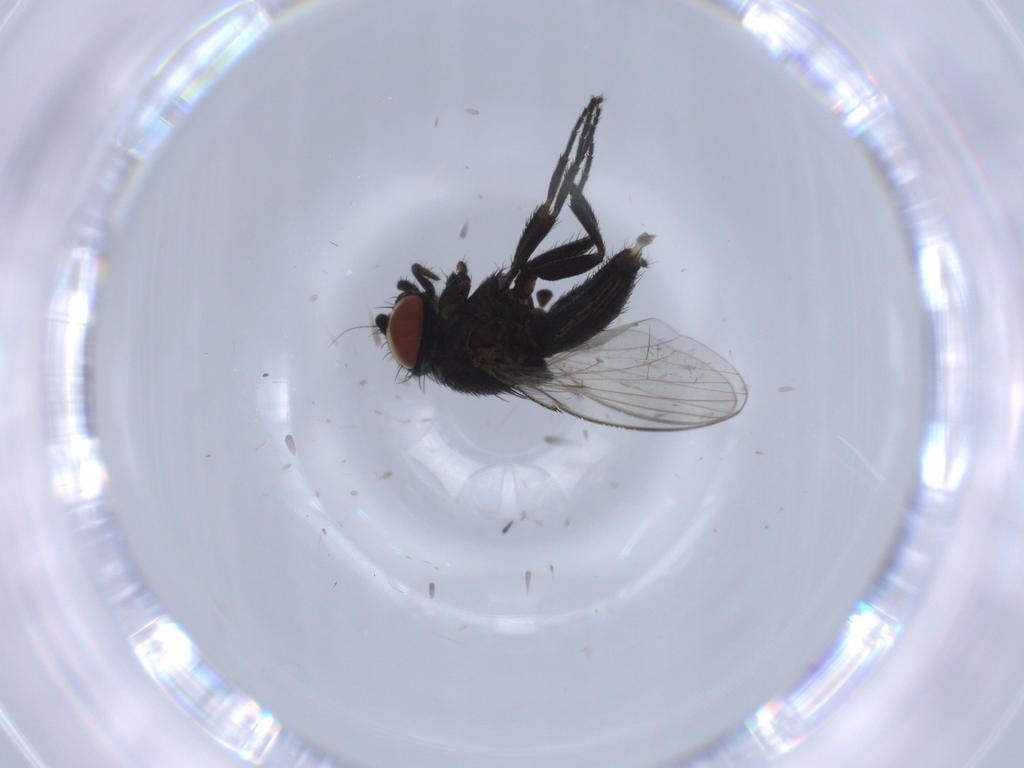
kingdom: Animalia
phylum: Arthropoda
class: Insecta
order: Diptera
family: Milichiidae
